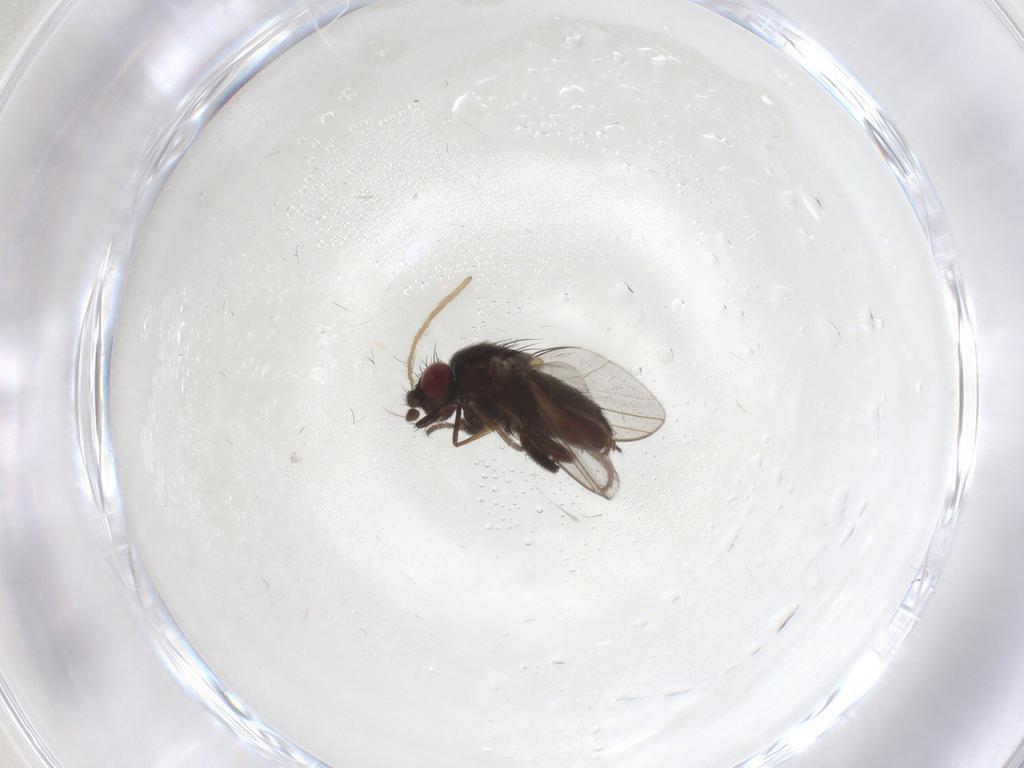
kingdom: Animalia
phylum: Arthropoda
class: Insecta
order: Diptera
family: Milichiidae
